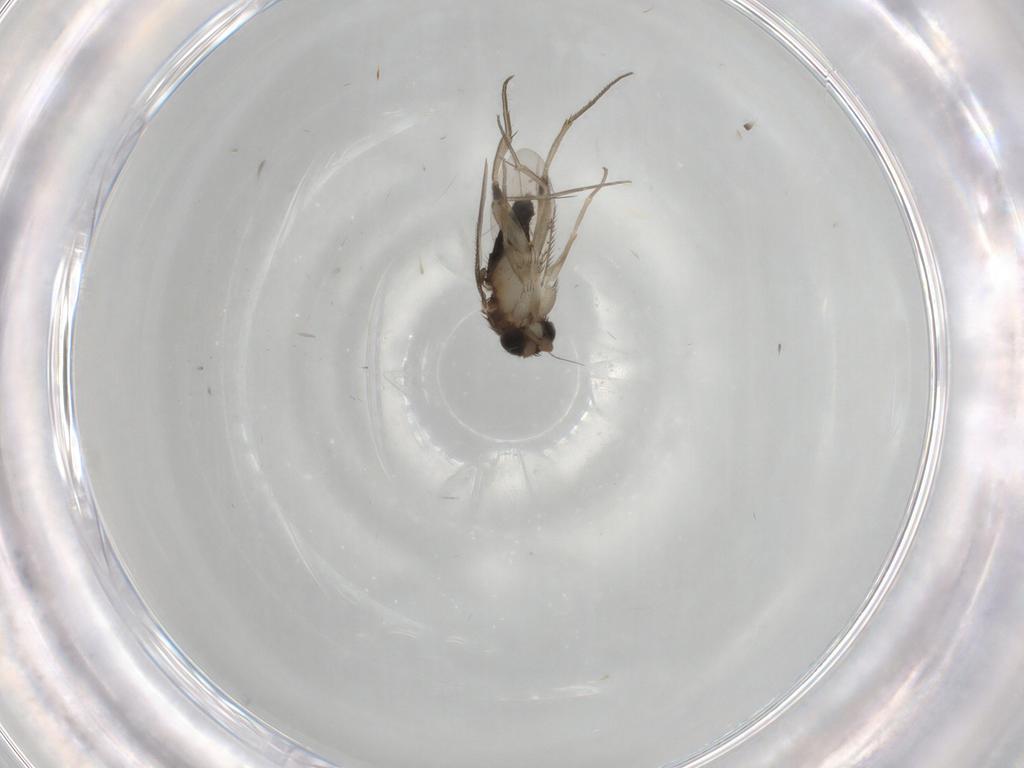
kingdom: Animalia
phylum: Arthropoda
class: Insecta
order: Diptera
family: Phoridae
